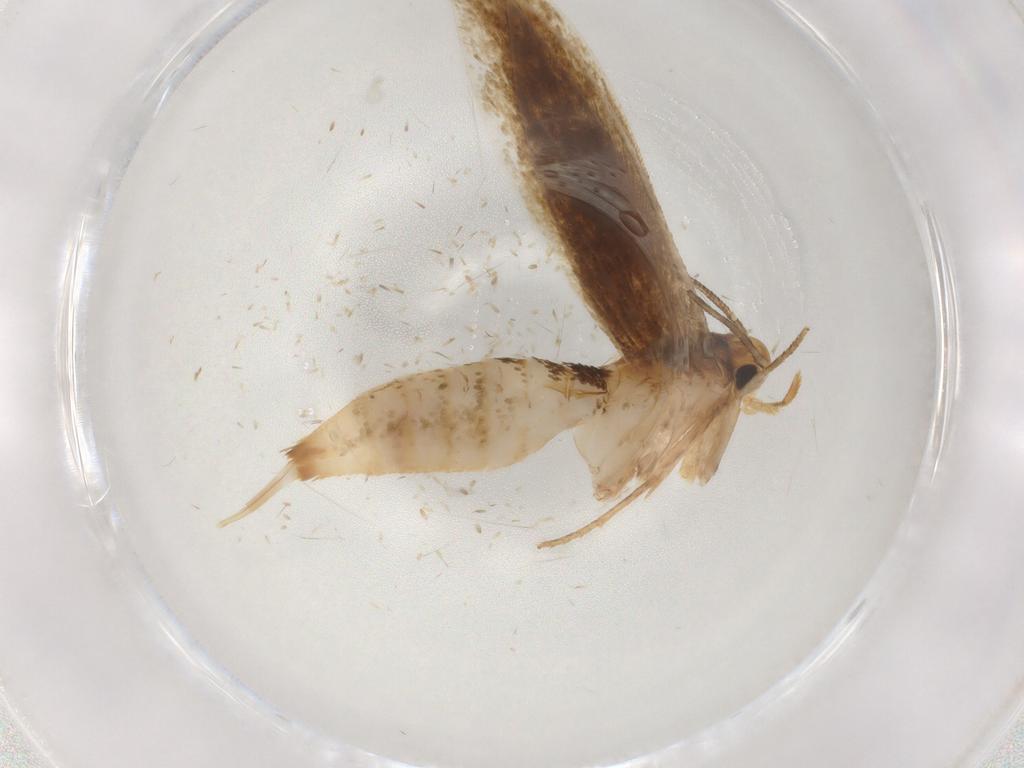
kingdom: Animalia
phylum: Arthropoda
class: Insecta
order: Lepidoptera
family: Tineidae
